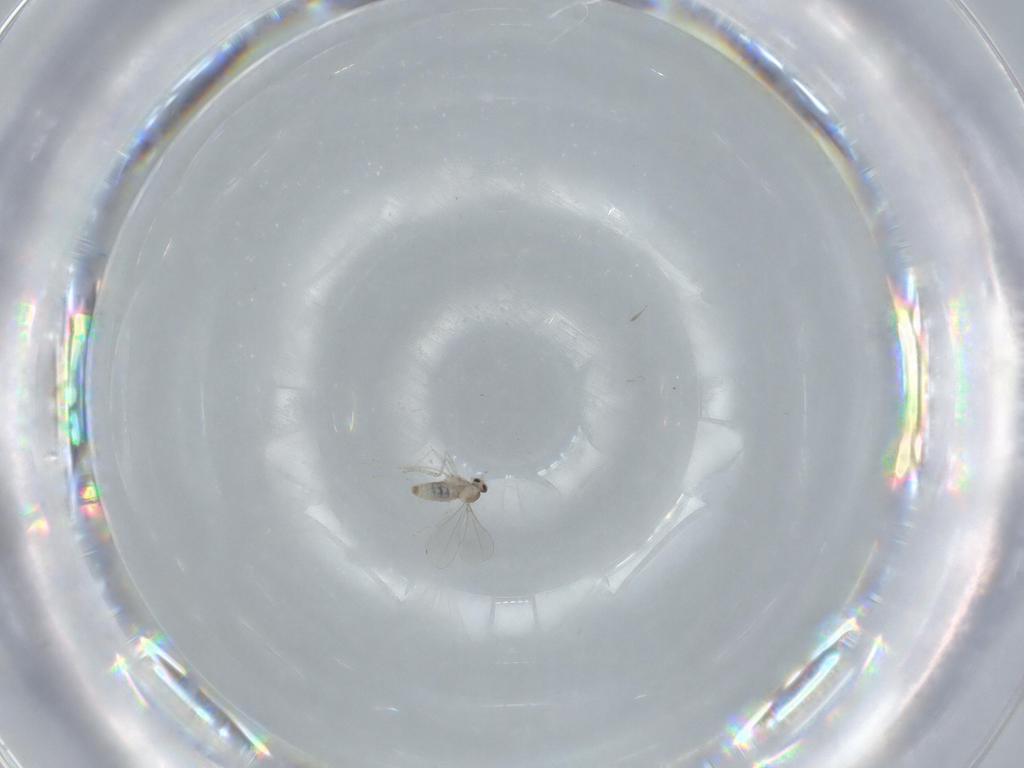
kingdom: Animalia
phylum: Arthropoda
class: Insecta
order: Diptera
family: Cecidomyiidae
